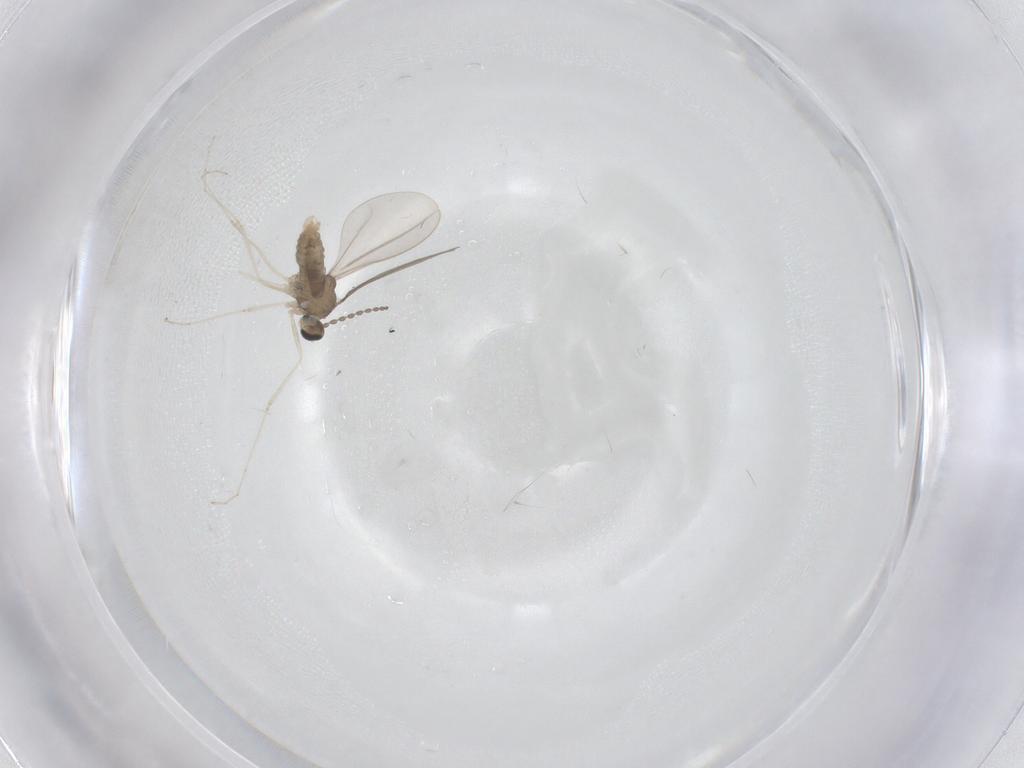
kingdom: Animalia
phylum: Arthropoda
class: Insecta
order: Diptera
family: Cecidomyiidae
